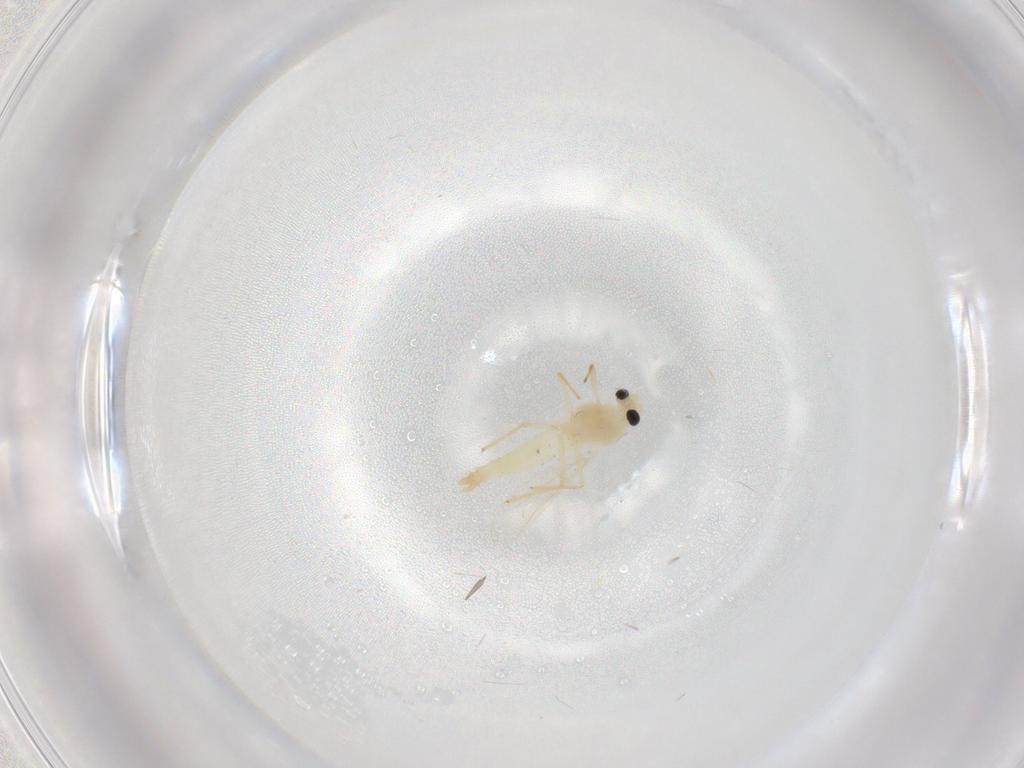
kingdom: Animalia
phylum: Arthropoda
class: Insecta
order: Diptera
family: Chironomidae
